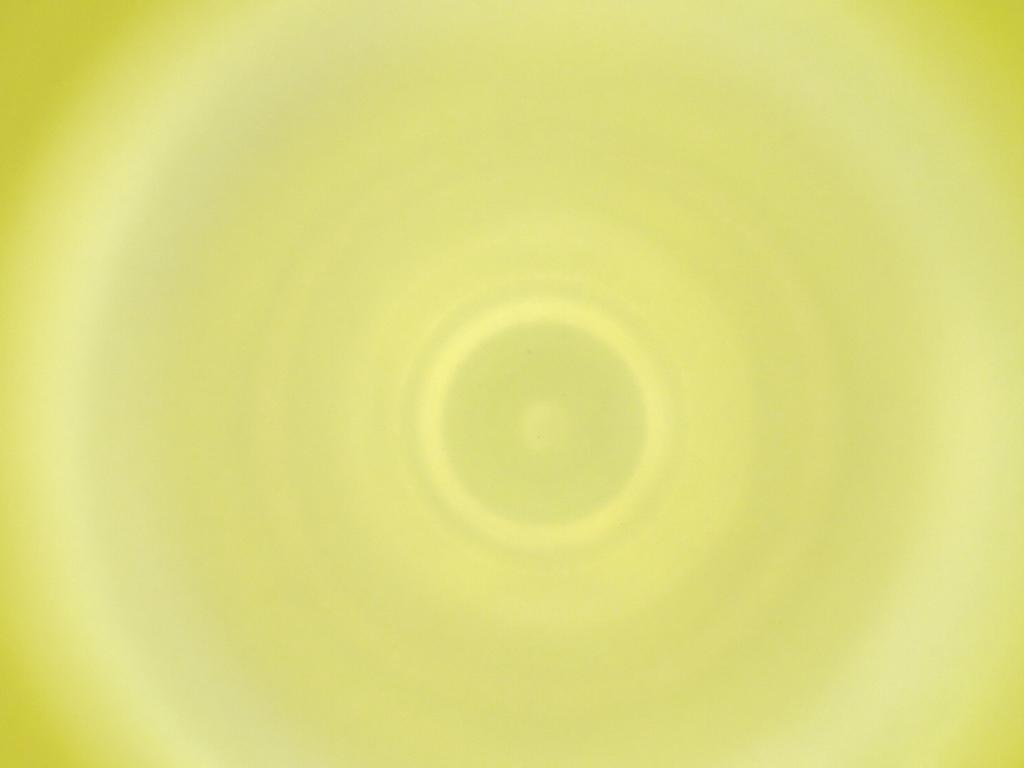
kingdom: Animalia
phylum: Arthropoda
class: Insecta
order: Diptera
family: Cecidomyiidae
